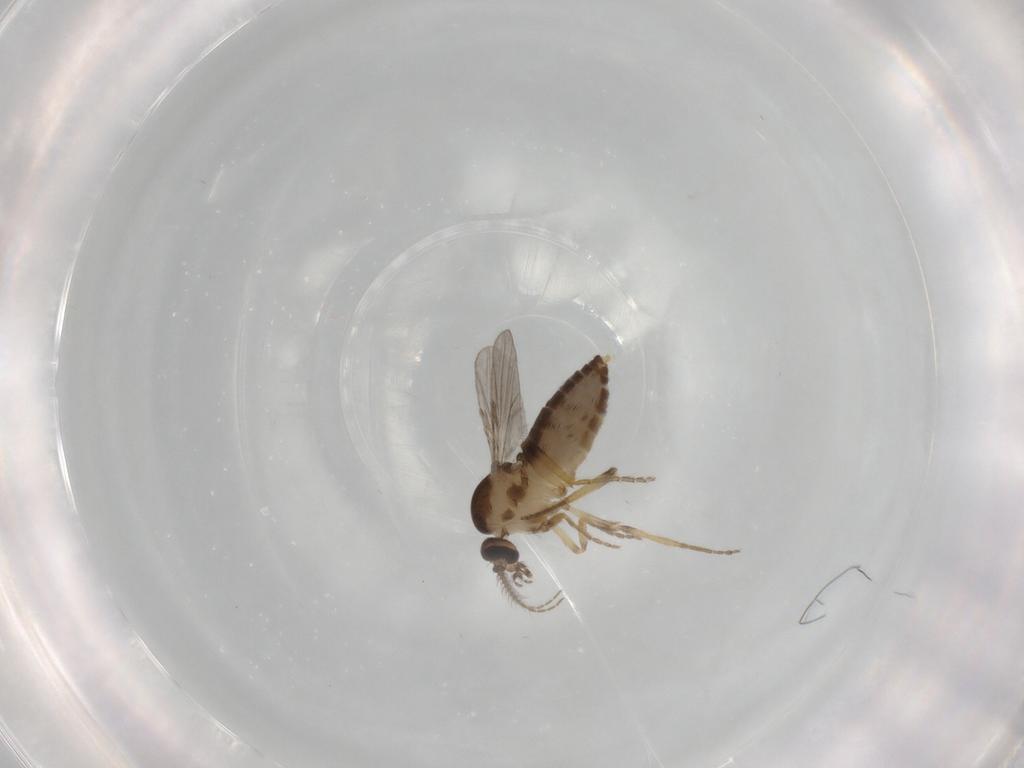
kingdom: Animalia
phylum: Arthropoda
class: Insecta
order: Diptera
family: Ceratopogonidae
